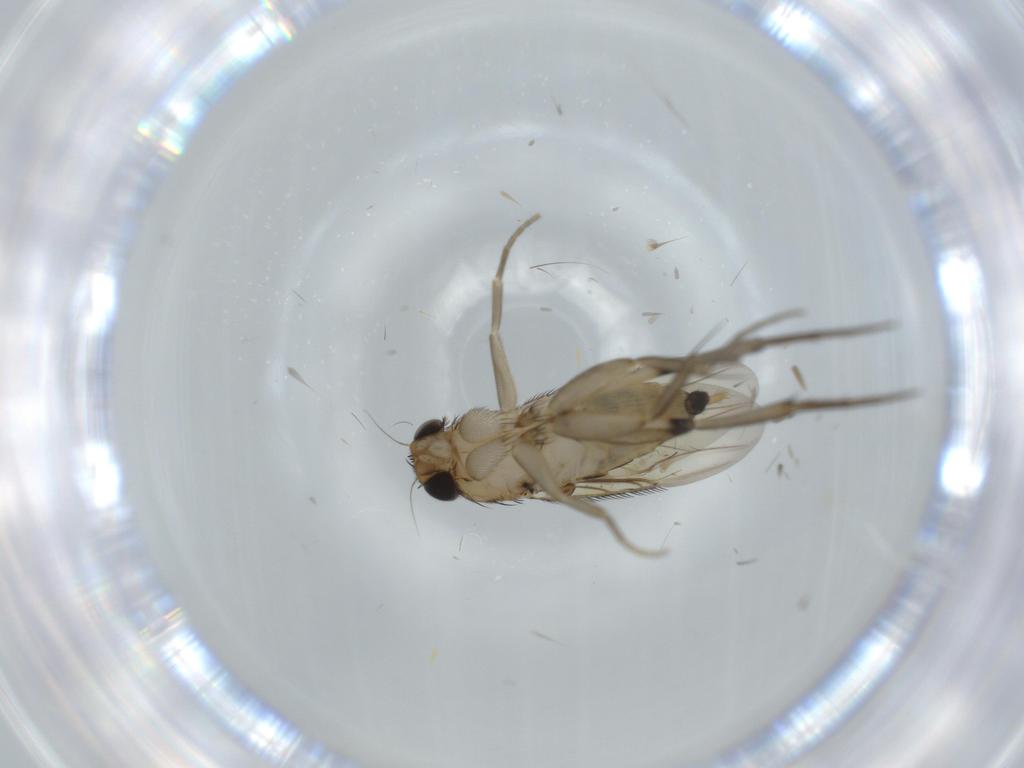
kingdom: Animalia
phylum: Arthropoda
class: Insecta
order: Diptera
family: Phoridae
